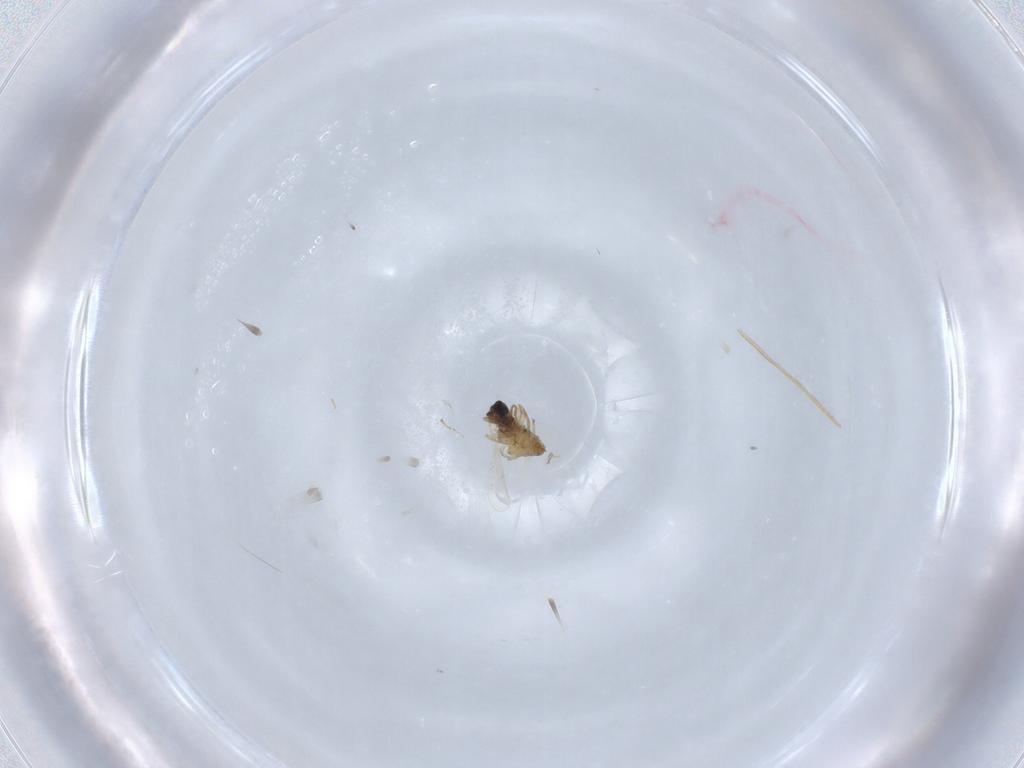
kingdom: Animalia
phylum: Arthropoda
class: Insecta
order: Diptera
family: Cecidomyiidae
